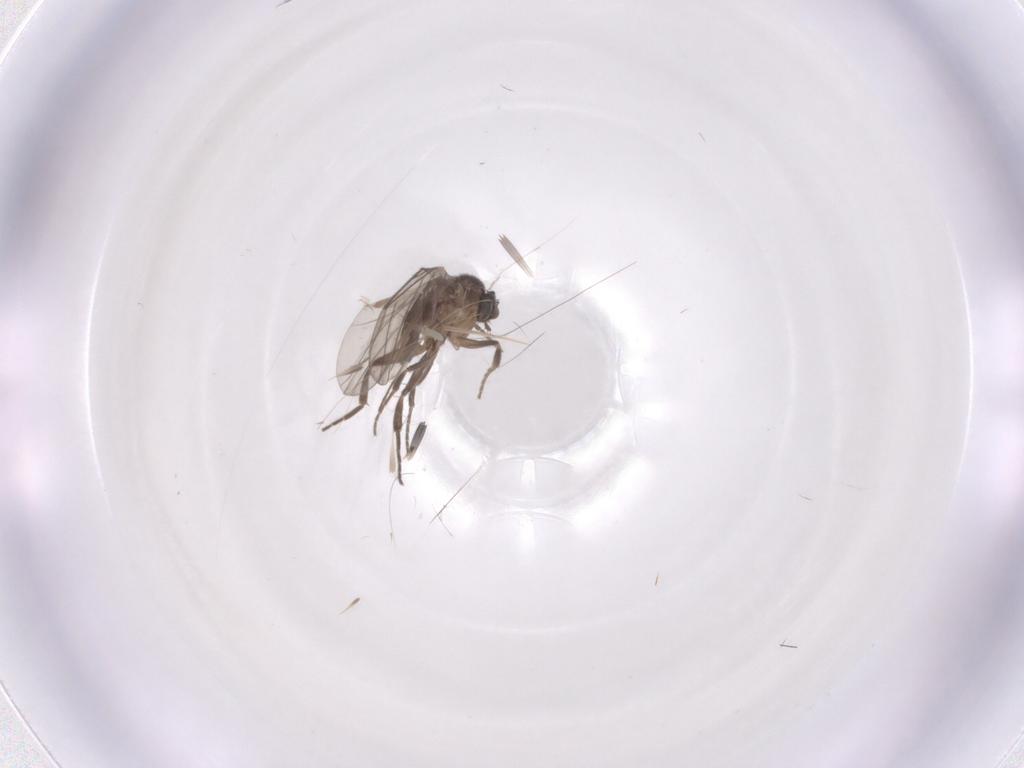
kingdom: Animalia
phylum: Arthropoda
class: Insecta
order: Diptera
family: Phoridae
